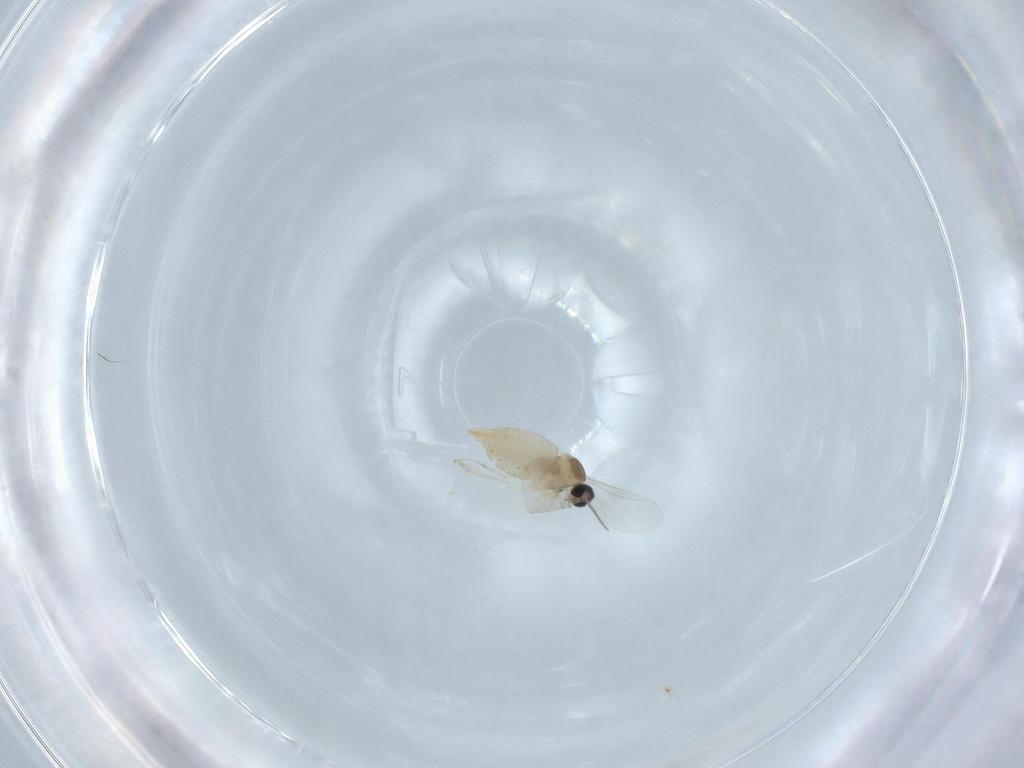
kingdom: Animalia
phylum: Arthropoda
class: Insecta
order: Diptera
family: Cecidomyiidae
